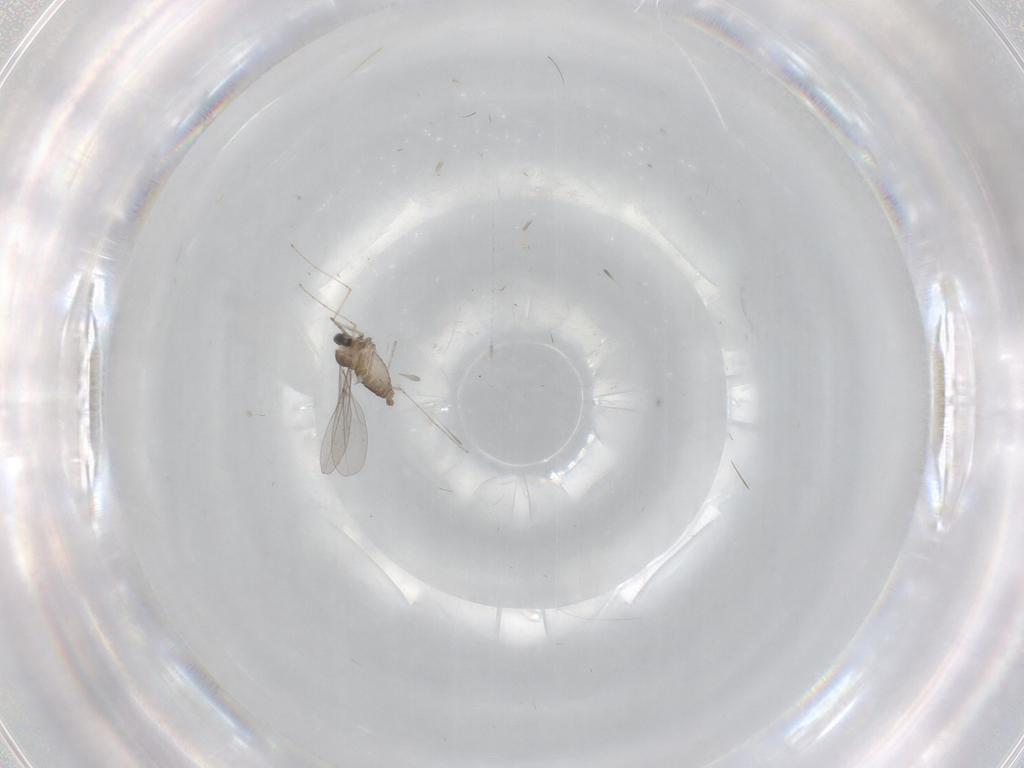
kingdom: Animalia
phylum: Arthropoda
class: Insecta
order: Diptera
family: Cecidomyiidae
